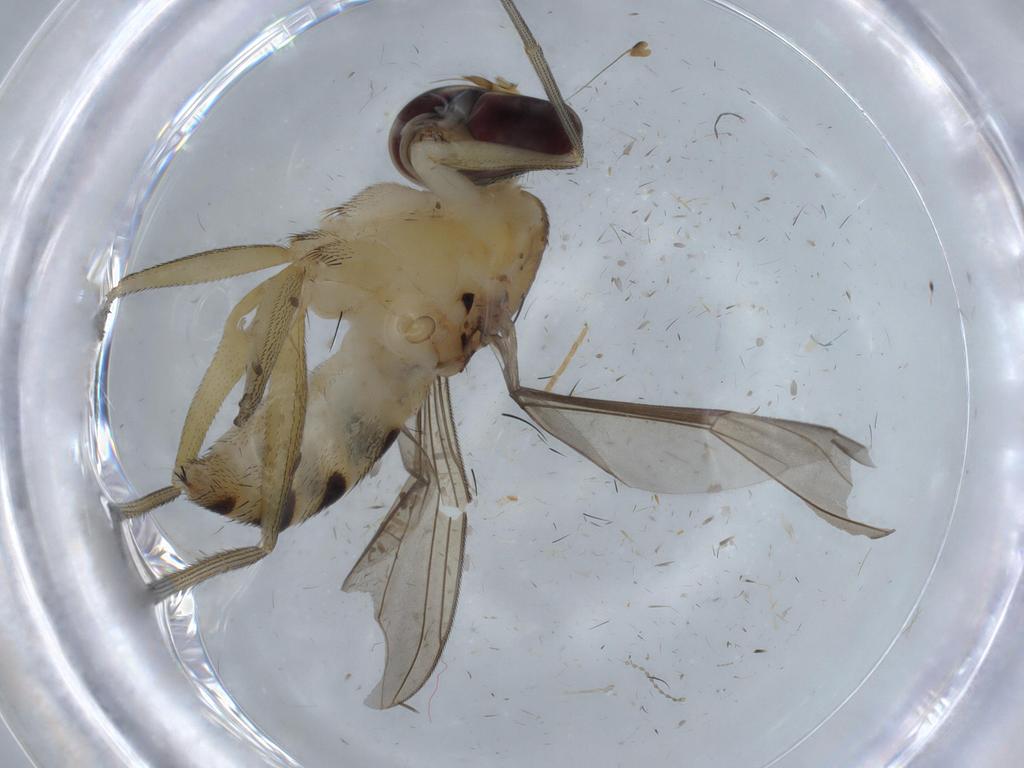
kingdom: Animalia
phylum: Arthropoda
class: Insecta
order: Diptera
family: Dolichopodidae
